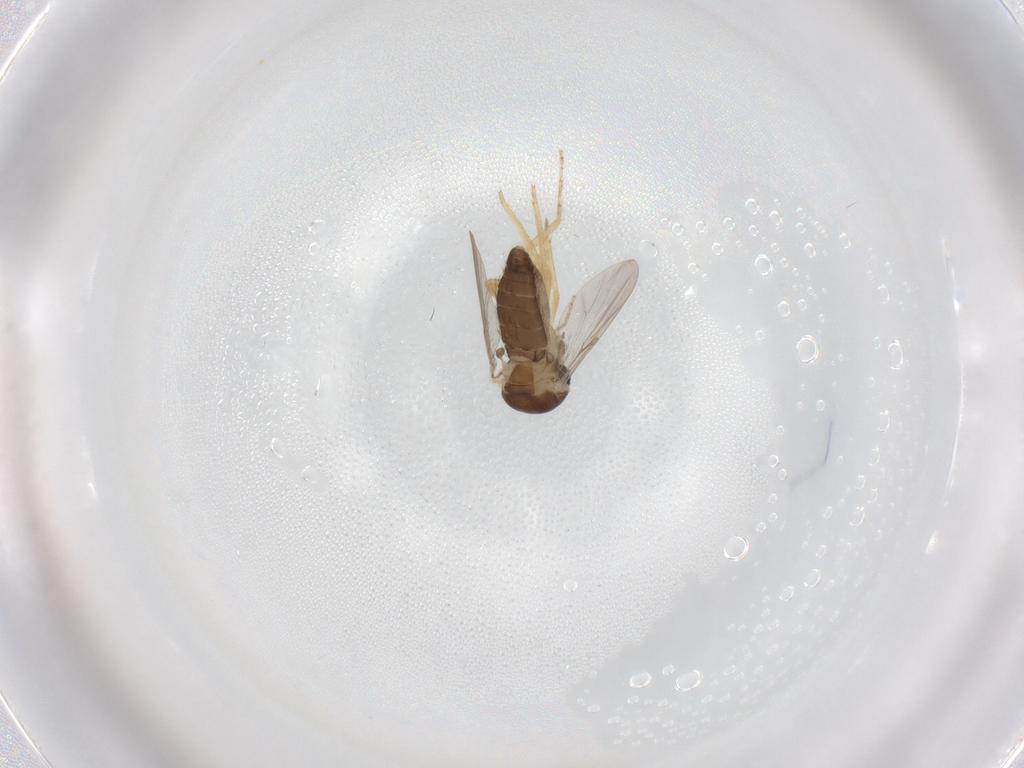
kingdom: Animalia
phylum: Arthropoda
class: Insecta
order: Diptera
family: Ceratopogonidae
